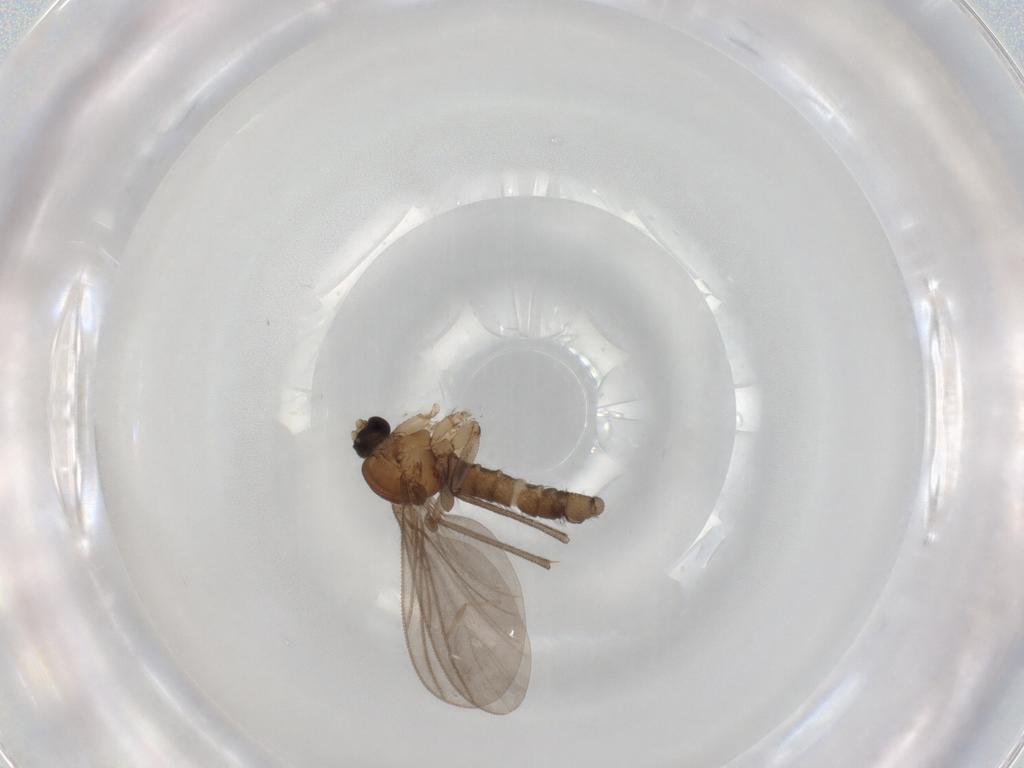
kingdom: Animalia
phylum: Arthropoda
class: Insecta
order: Diptera
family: Sciaridae
